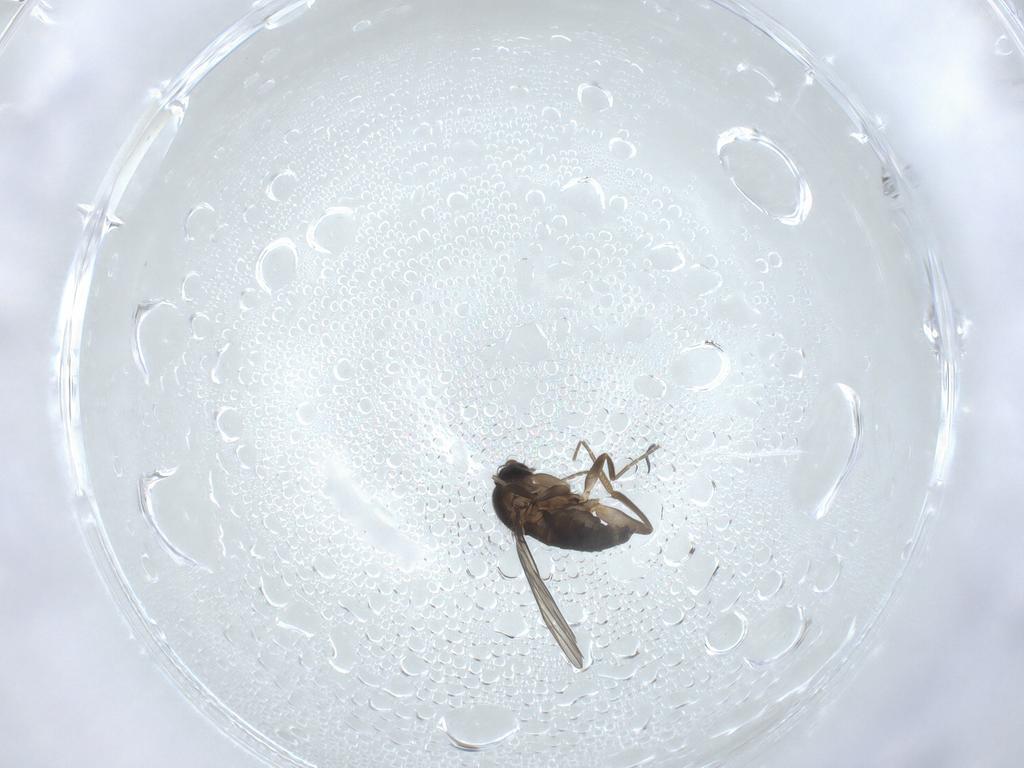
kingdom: Animalia
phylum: Arthropoda
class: Insecta
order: Diptera
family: Phoridae
